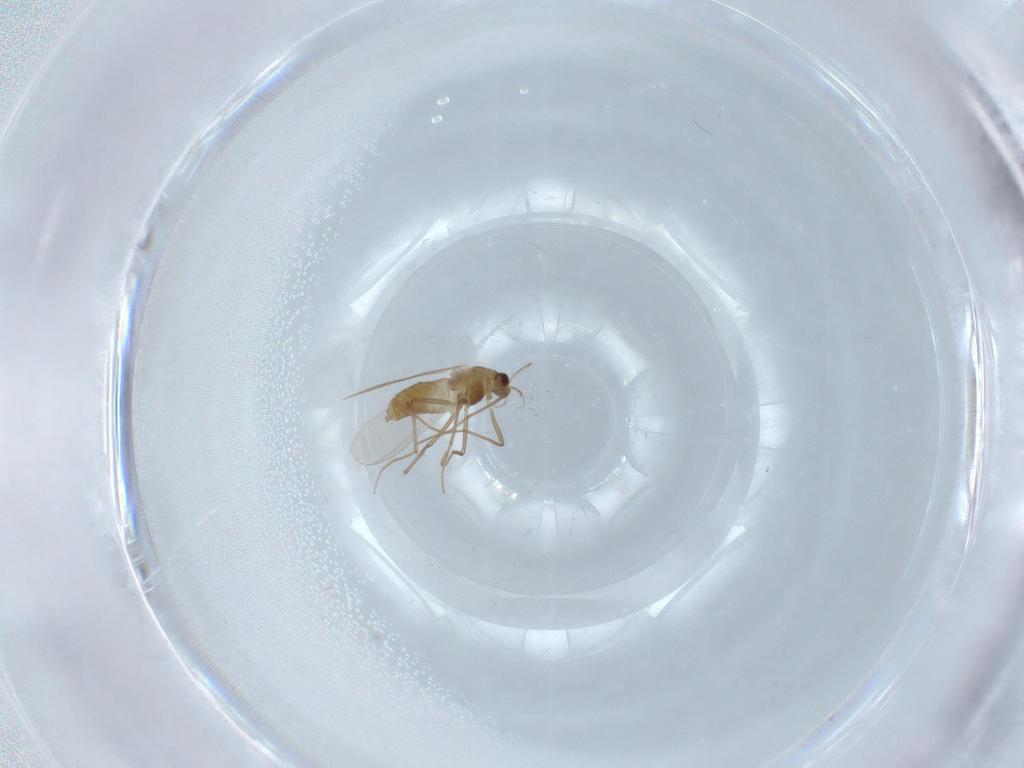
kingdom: Animalia
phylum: Arthropoda
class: Insecta
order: Diptera
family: Chironomidae
